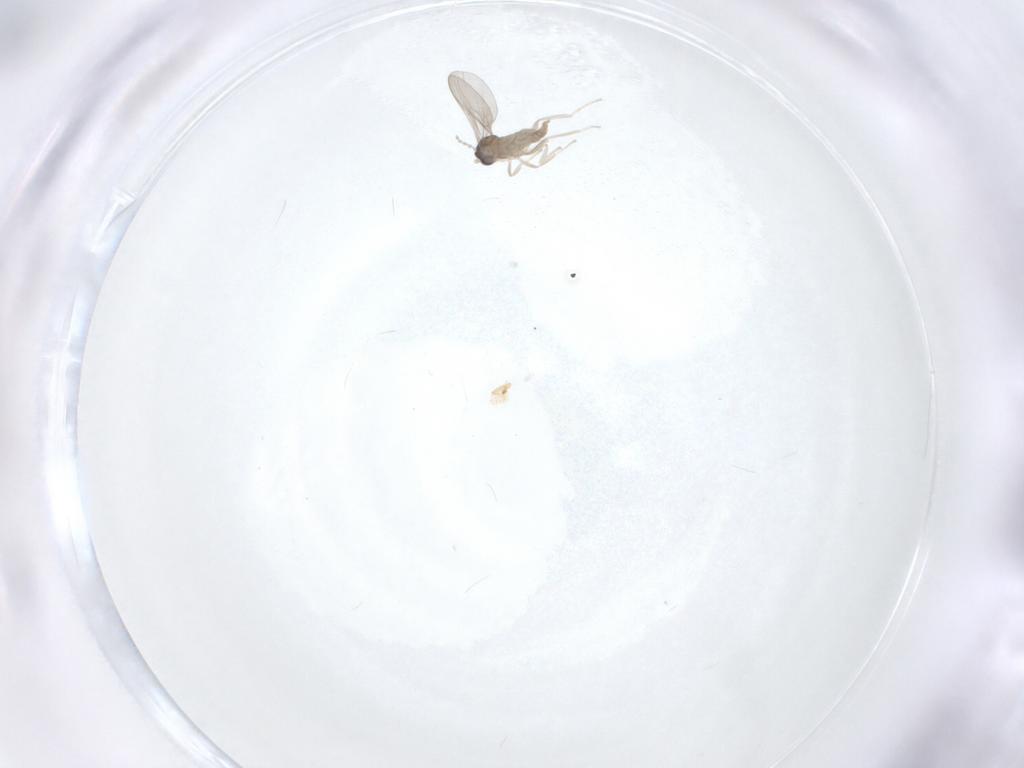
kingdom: Animalia
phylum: Arthropoda
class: Insecta
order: Diptera
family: Cecidomyiidae
